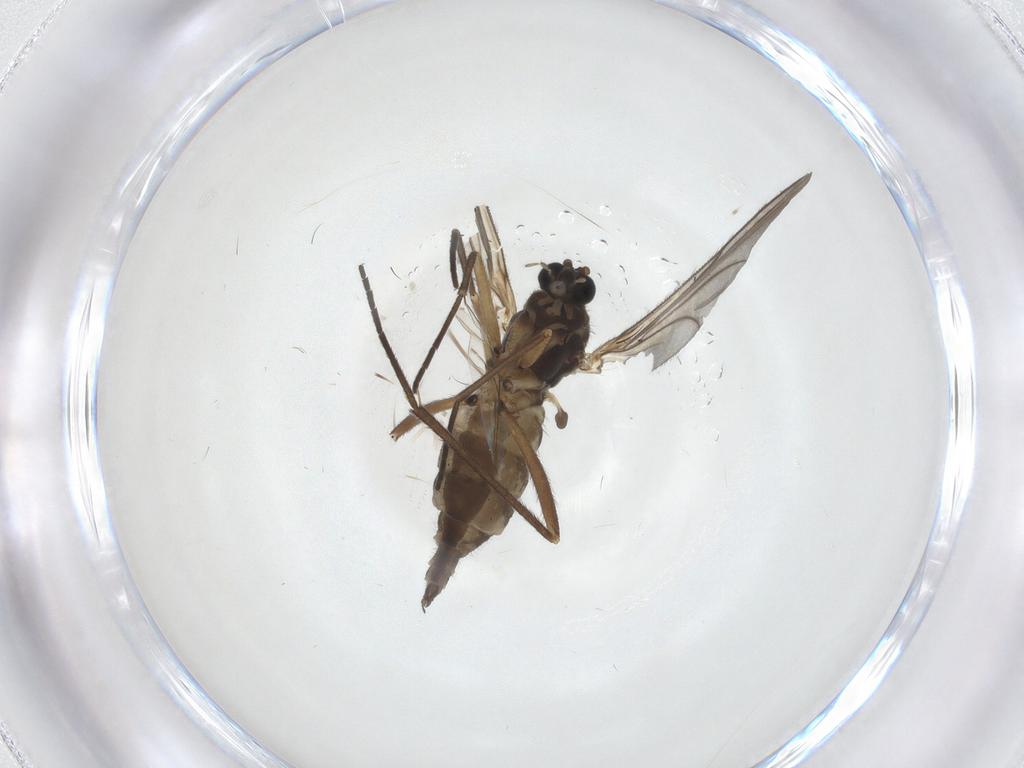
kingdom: Animalia
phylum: Arthropoda
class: Insecta
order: Diptera
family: Sciaridae
